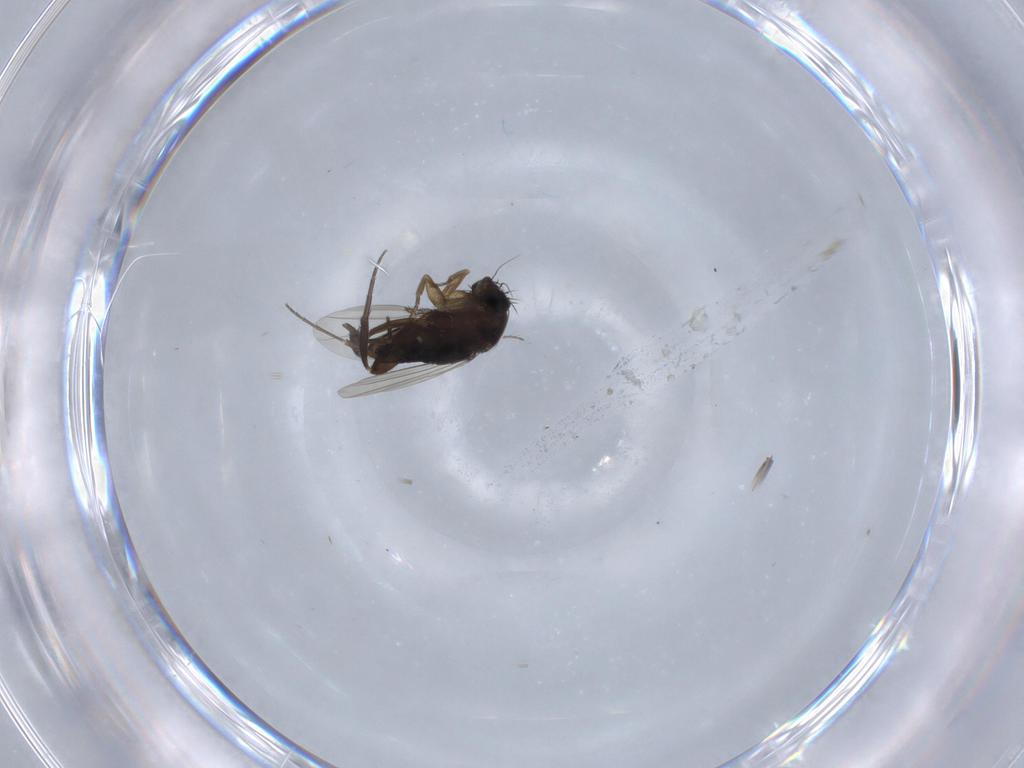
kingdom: Animalia
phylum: Arthropoda
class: Insecta
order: Diptera
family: Phoridae
